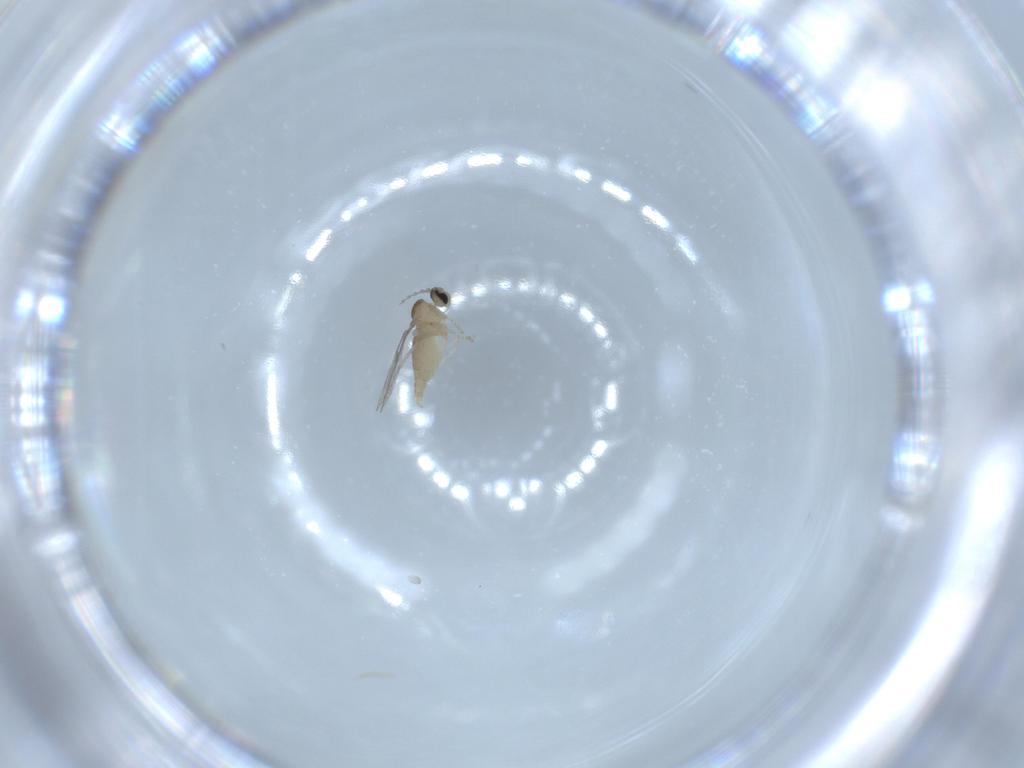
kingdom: Animalia
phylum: Arthropoda
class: Insecta
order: Diptera
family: Cecidomyiidae
